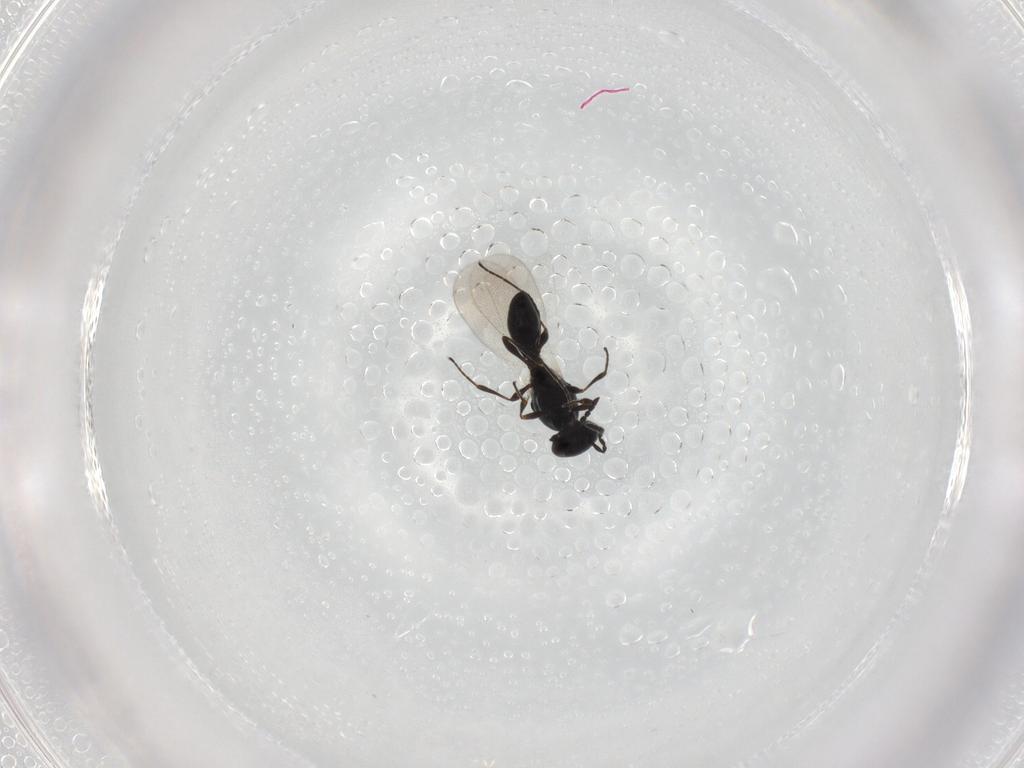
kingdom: Animalia
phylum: Arthropoda
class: Insecta
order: Hymenoptera
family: Platygastridae
